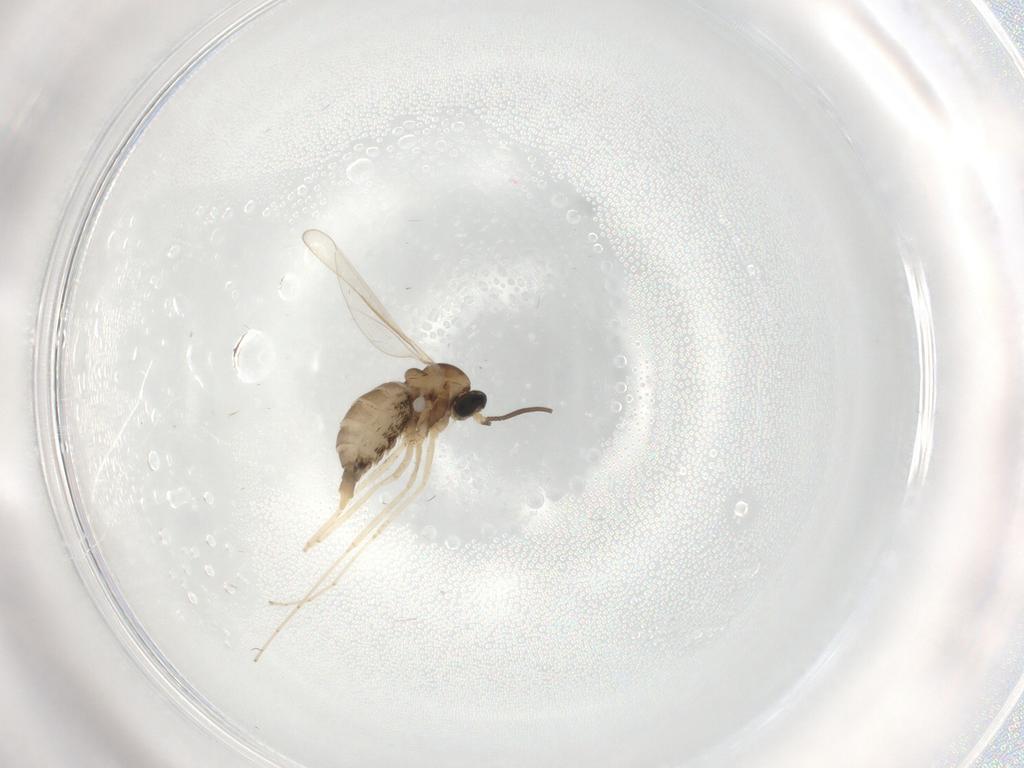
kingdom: Animalia
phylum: Arthropoda
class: Insecta
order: Diptera
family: Cecidomyiidae
